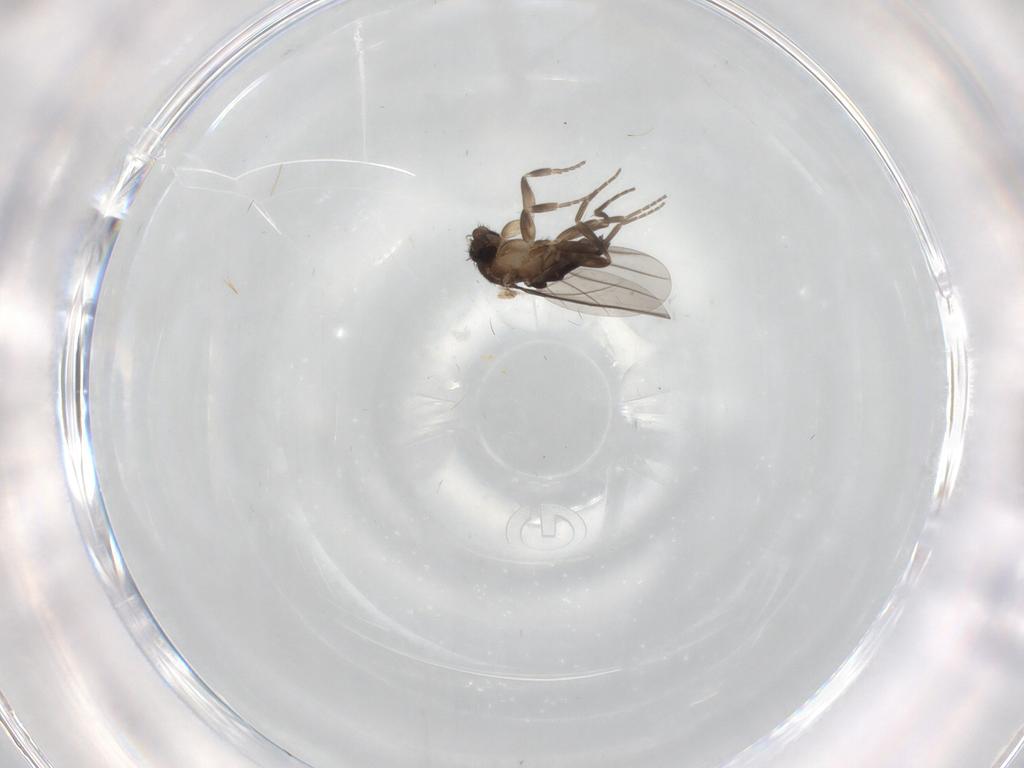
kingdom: Animalia
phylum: Arthropoda
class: Insecta
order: Diptera
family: Phoridae
